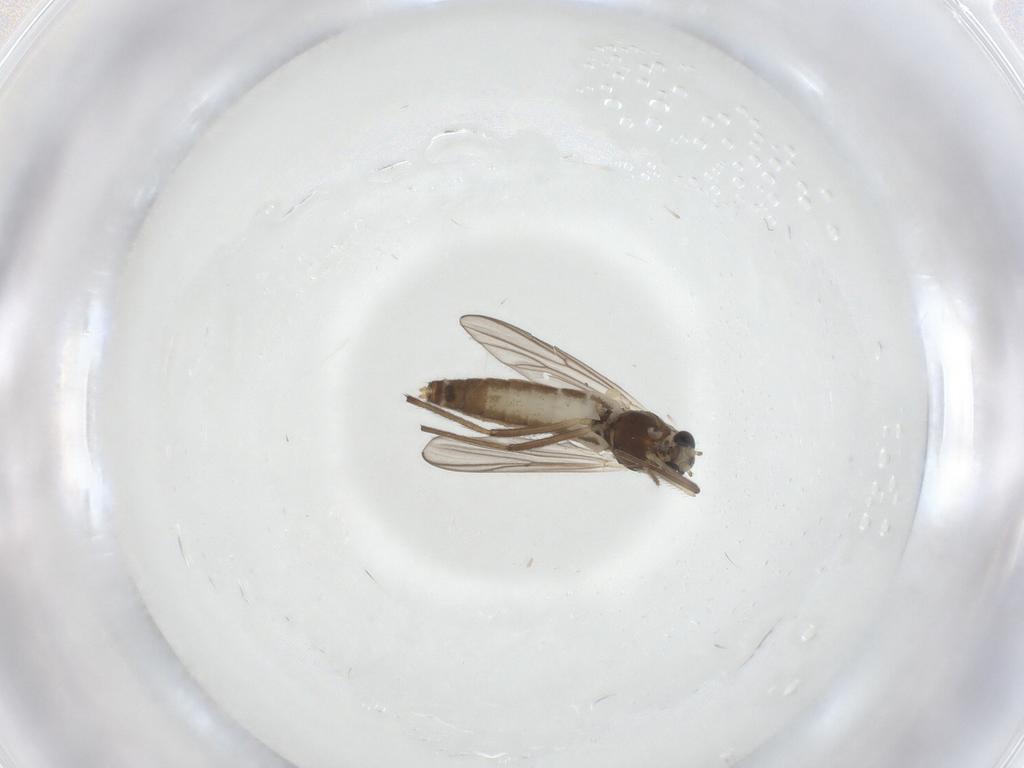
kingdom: Animalia
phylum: Arthropoda
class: Insecta
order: Diptera
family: Chironomidae
